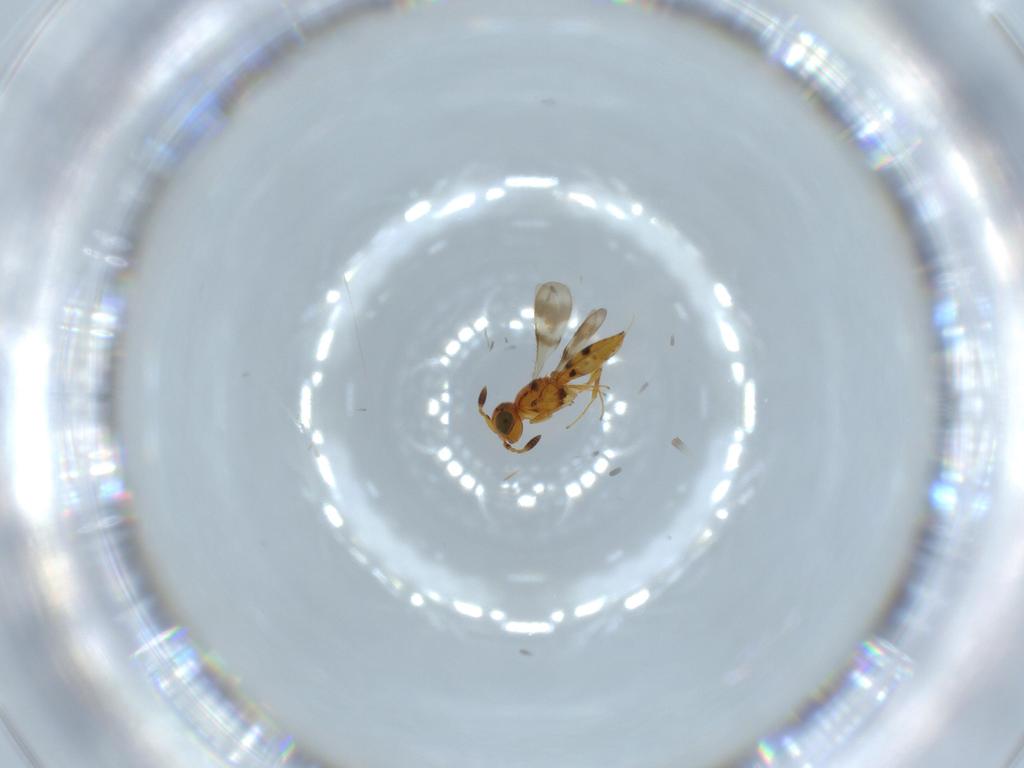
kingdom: Animalia
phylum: Arthropoda
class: Insecta
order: Hymenoptera
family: Scelionidae
